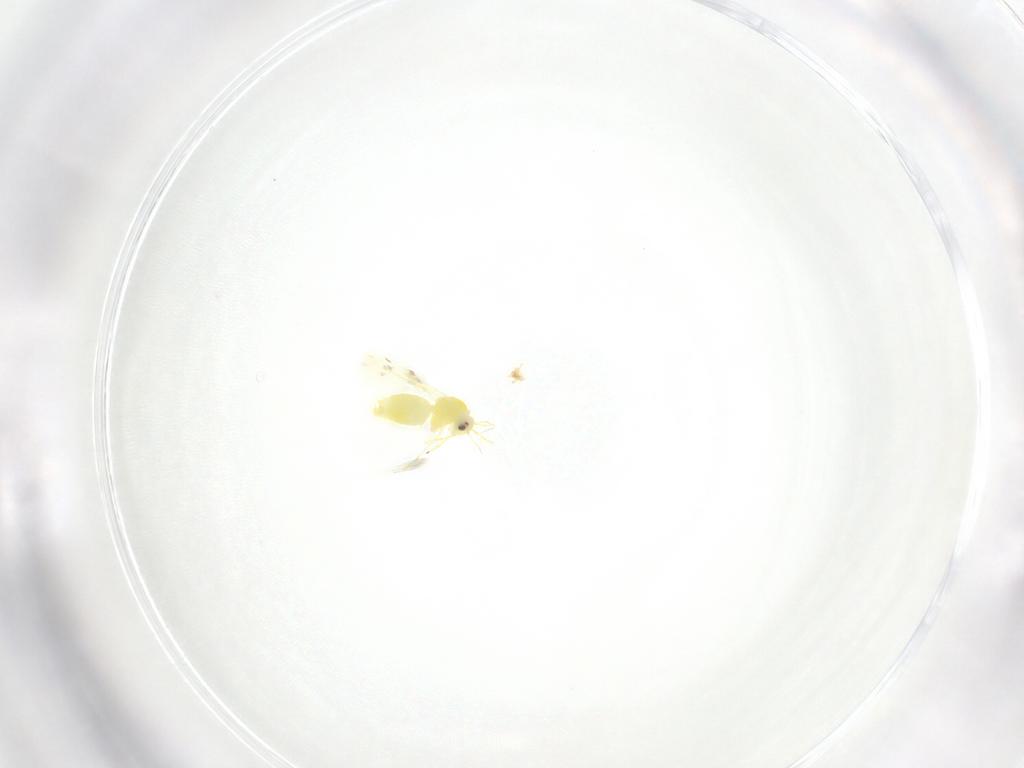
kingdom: Animalia
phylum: Arthropoda
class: Insecta
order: Hemiptera
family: Aleyrodidae
